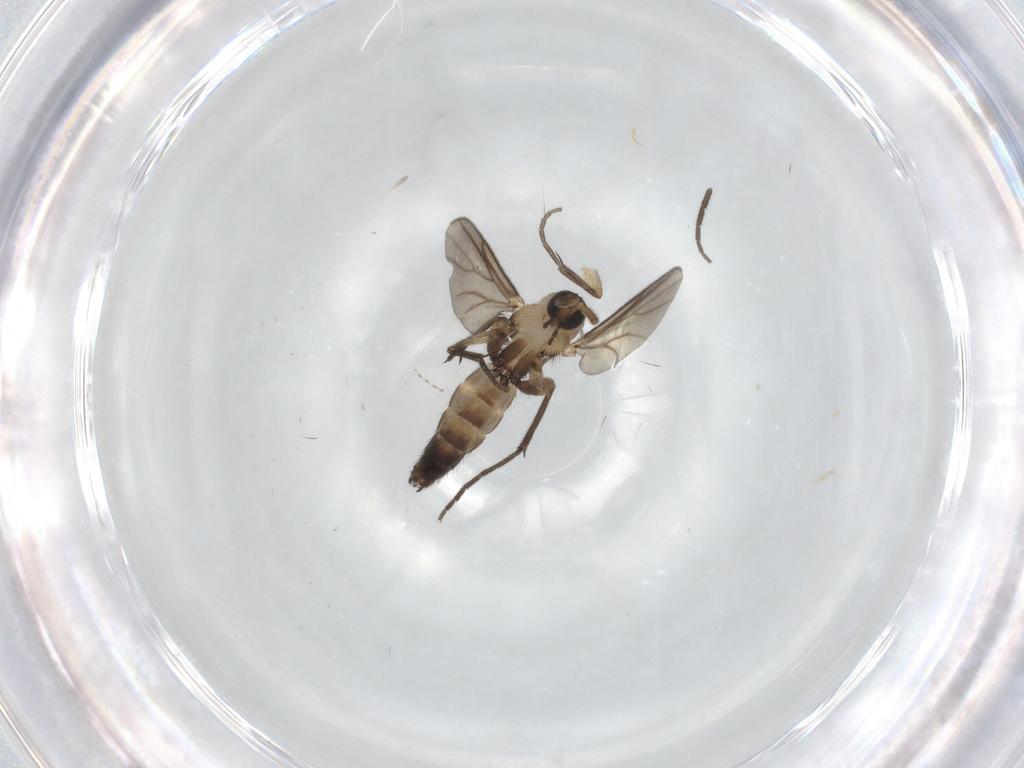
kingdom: Animalia
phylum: Arthropoda
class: Insecta
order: Diptera
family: Mycetophilidae
